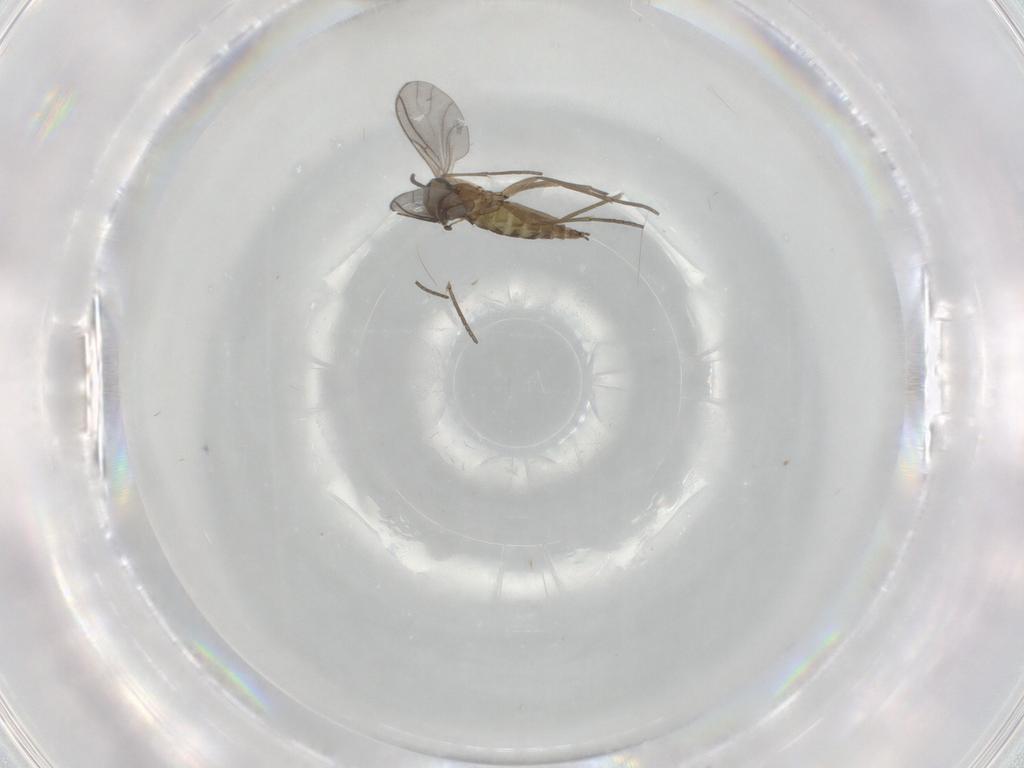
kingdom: Animalia
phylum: Arthropoda
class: Insecta
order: Diptera
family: Sciaridae
